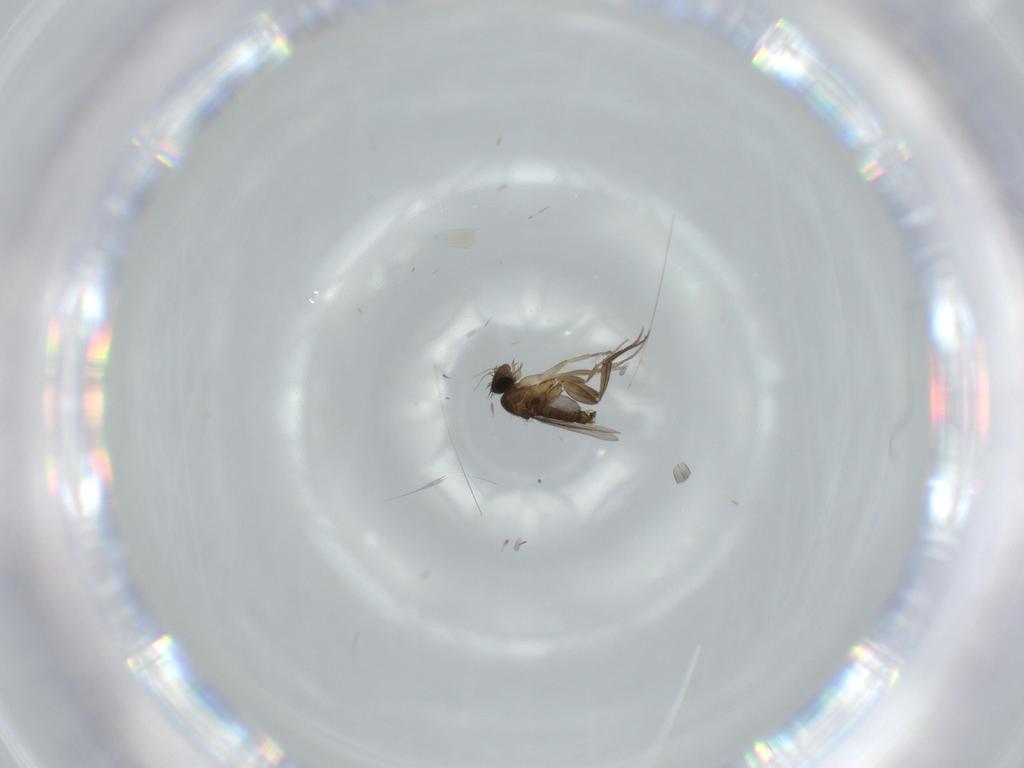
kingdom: Animalia
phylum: Arthropoda
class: Insecta
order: Diptera
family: Phoridae
